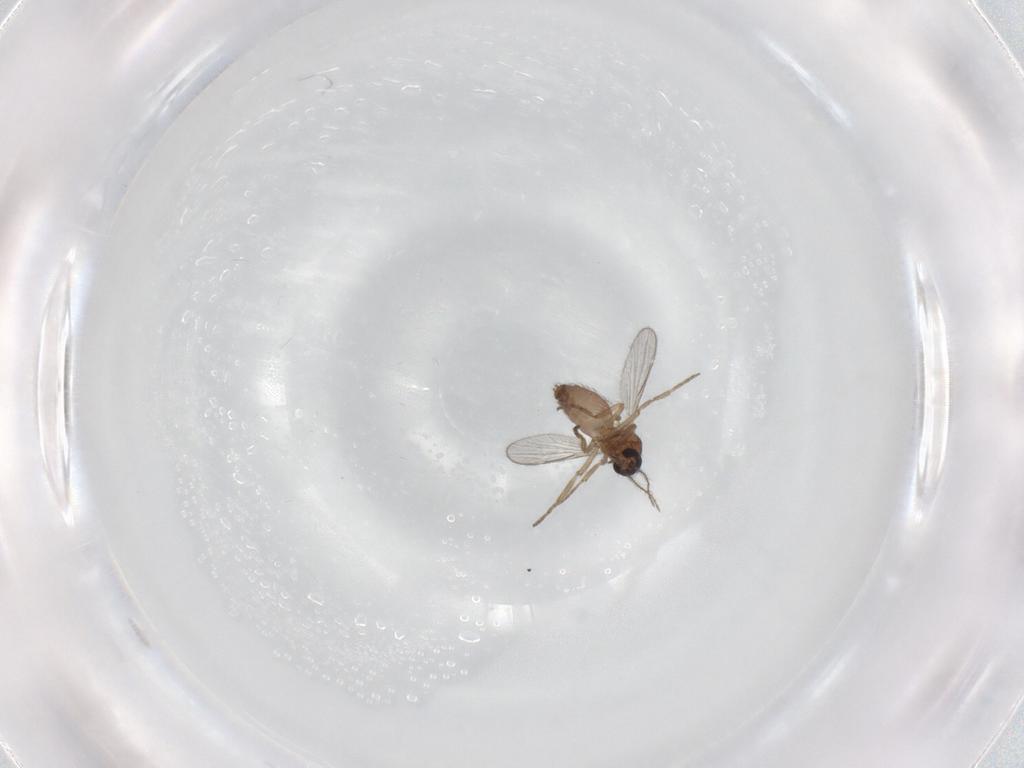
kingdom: Animalia
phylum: Arthropoda
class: Insecta
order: Diptera
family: Ceratopogonidae
